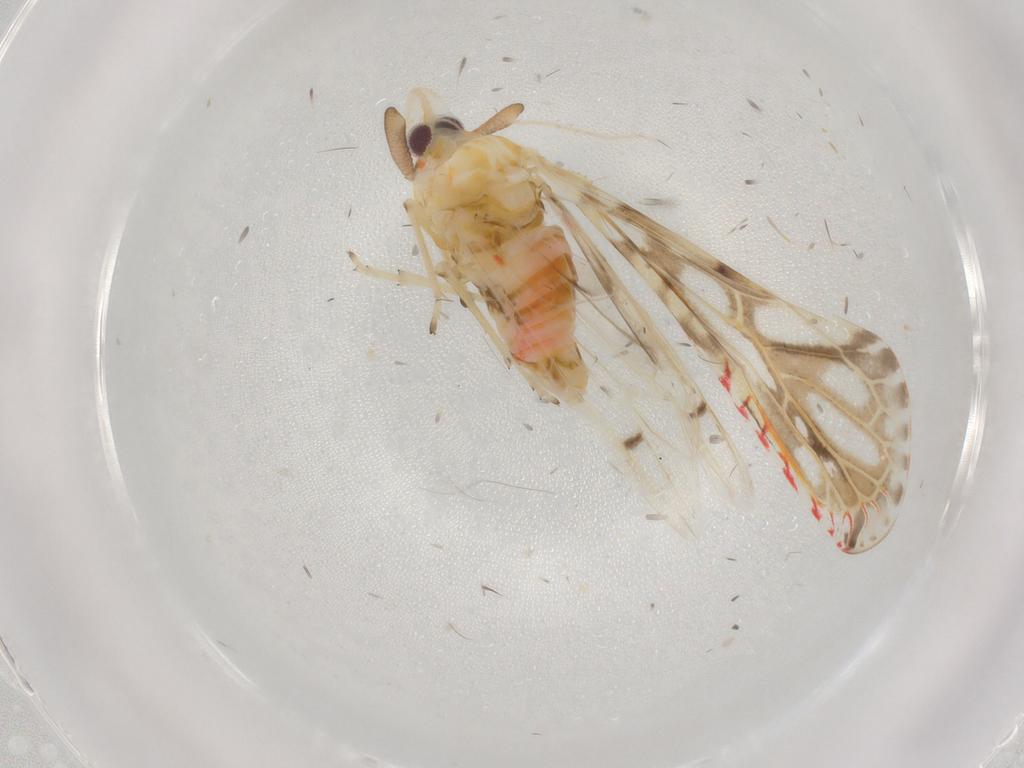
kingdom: Animalia
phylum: Arthropoda
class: Insecta
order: Hemiptera
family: Derbidae
